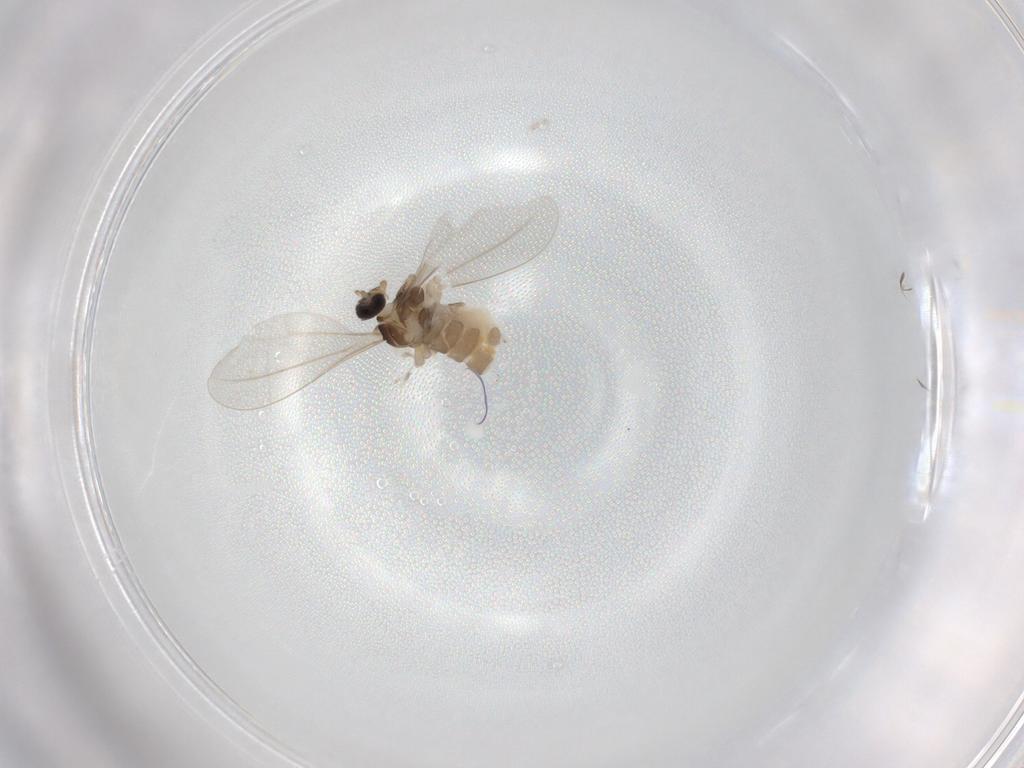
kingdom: Animalia
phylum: Arthropoda
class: Insecta
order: Diptera
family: Cecidomyiidae
